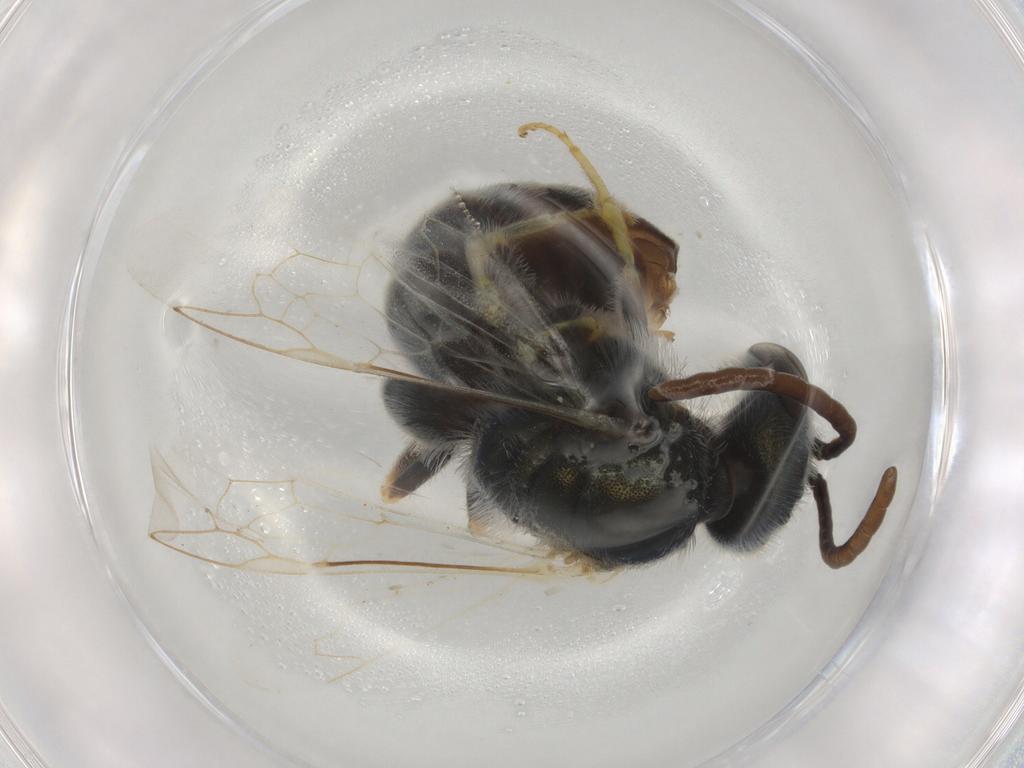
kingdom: Animalia
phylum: Arthropoda
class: Insecta
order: Hymenoptera
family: Halictidae
